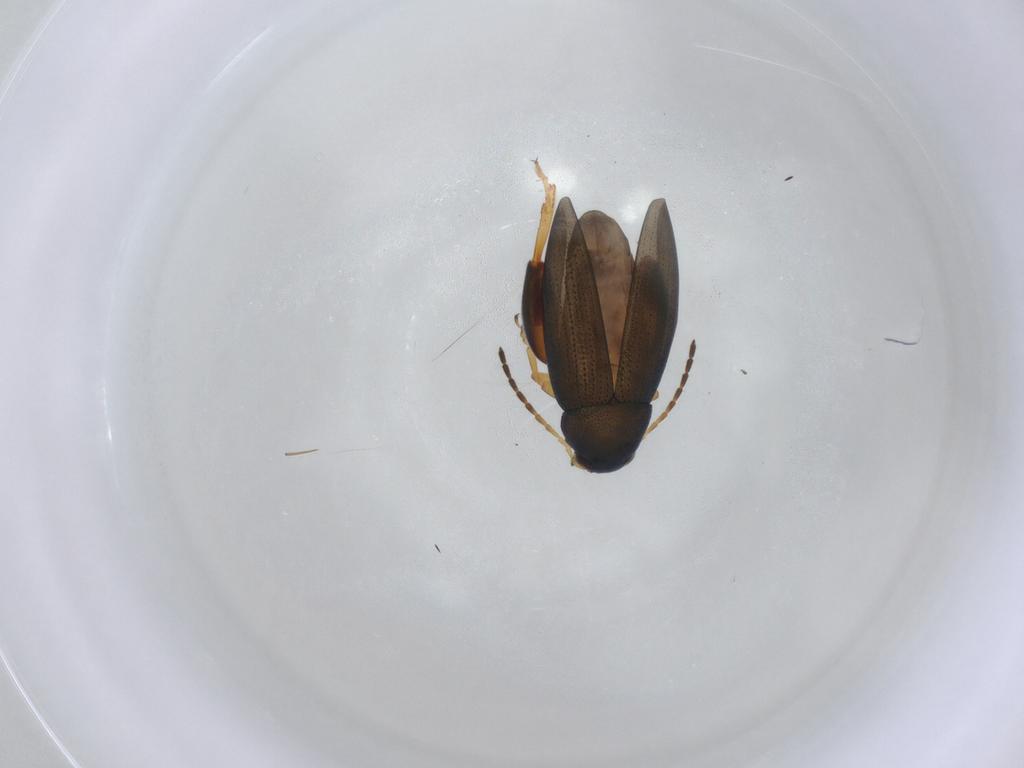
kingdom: Animalia
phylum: Arthropoda
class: Insecta
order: Coleoptera
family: Chrysomelidae
